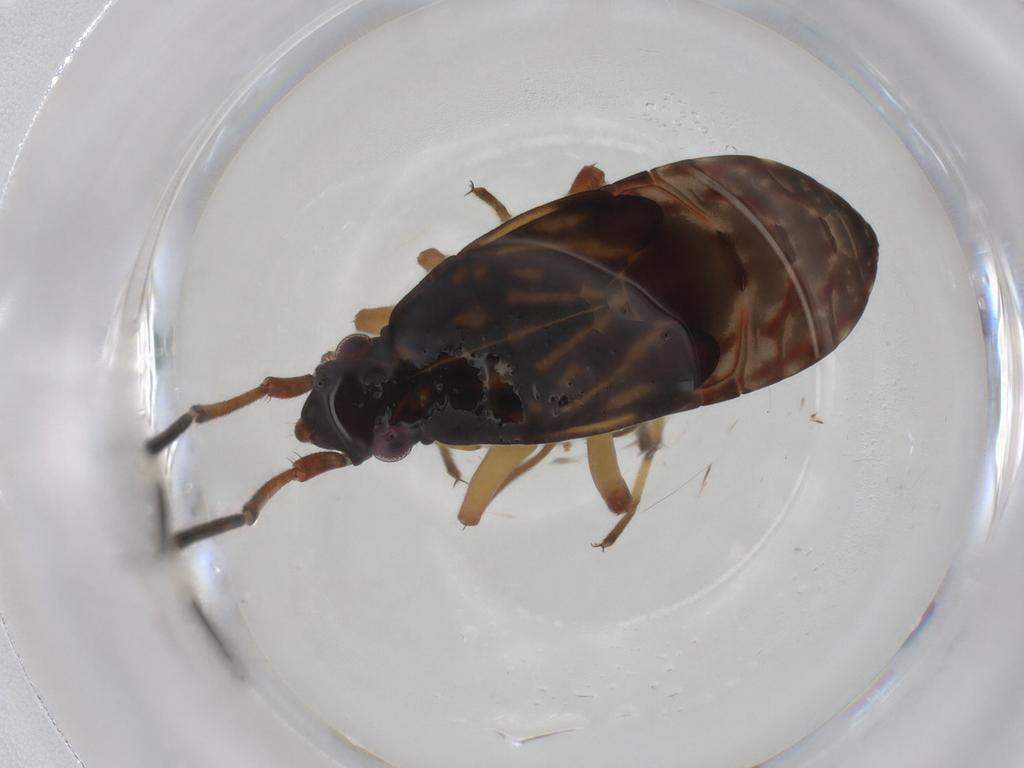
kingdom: Animalia
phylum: Arthropoda
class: Insecta
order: Hemiptera
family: Rhyparochromidae
